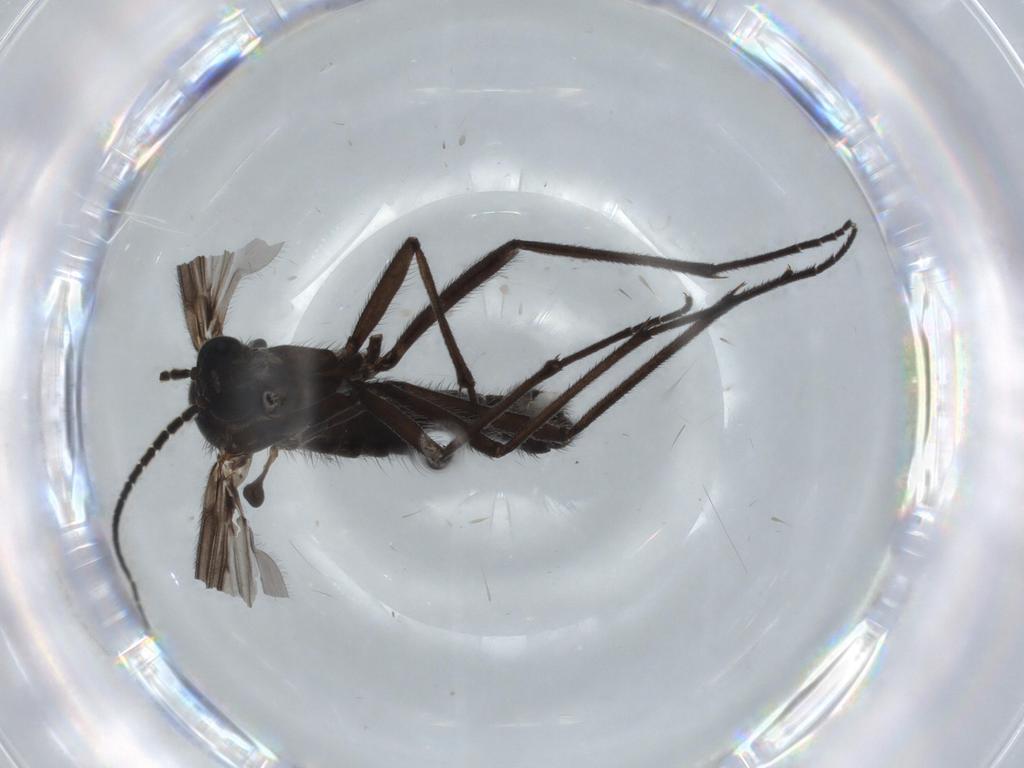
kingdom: Animalia
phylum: Arthropoda
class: Insecta
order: Diptera
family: Cecidomyiidae
